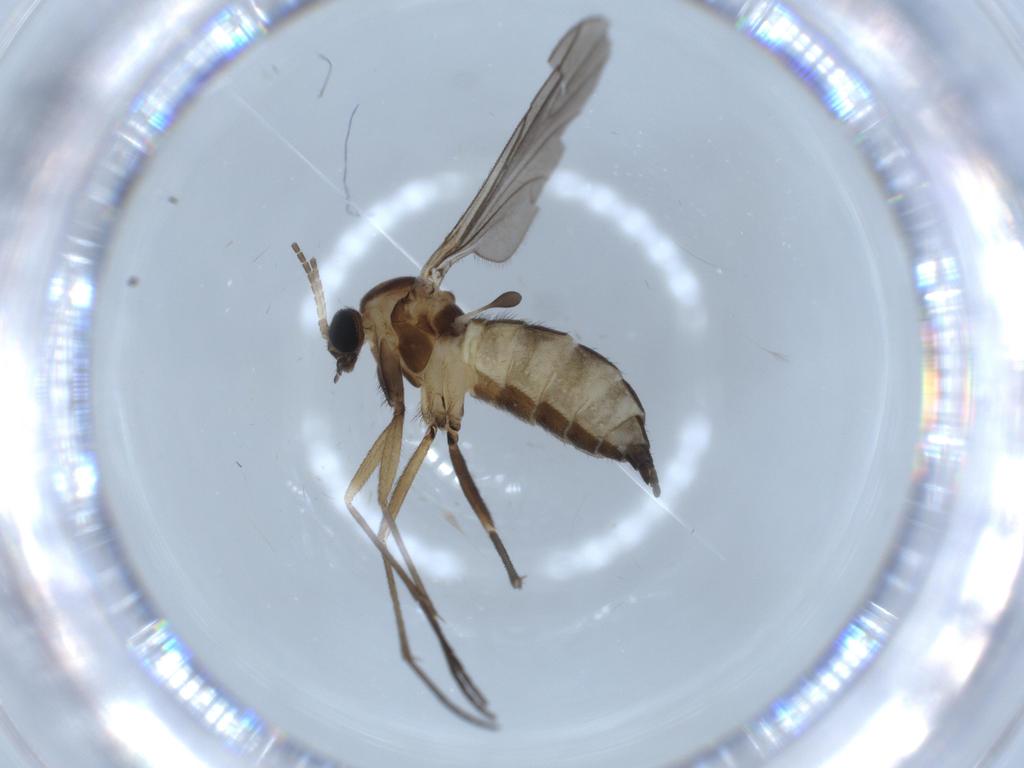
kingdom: Animalia
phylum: Arthropoda
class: Insecta
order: Diptera
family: Sciaridae
